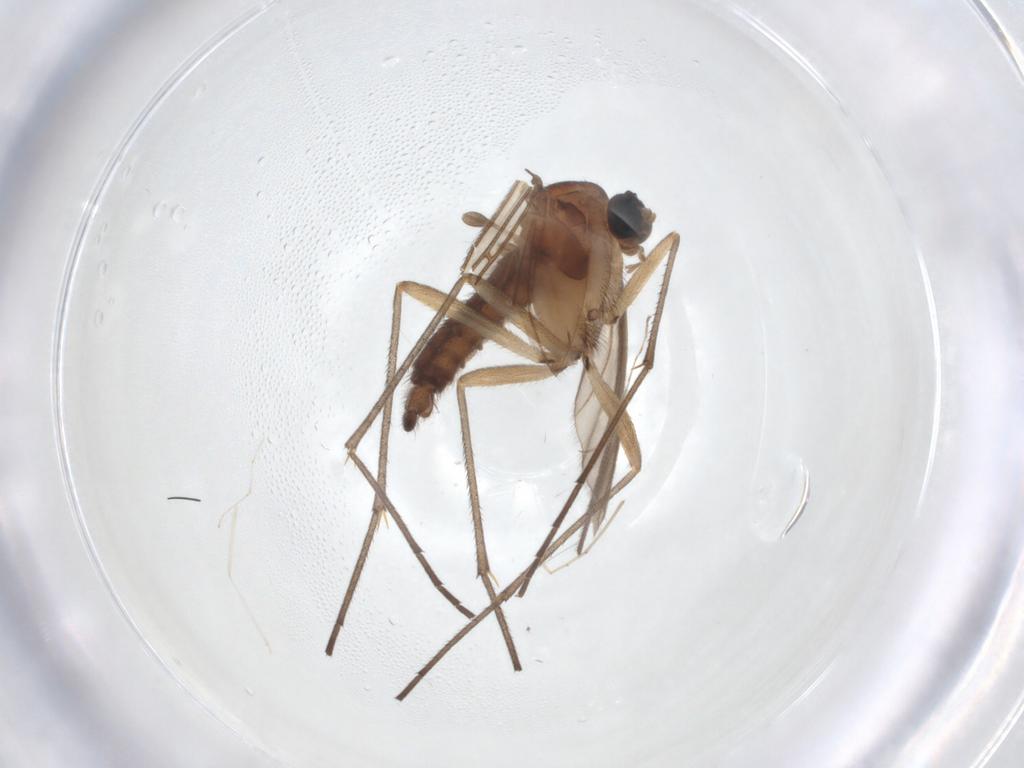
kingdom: Animalia
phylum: Arthropoda
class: Insecta
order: Diptera
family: Cecidomyiidae
